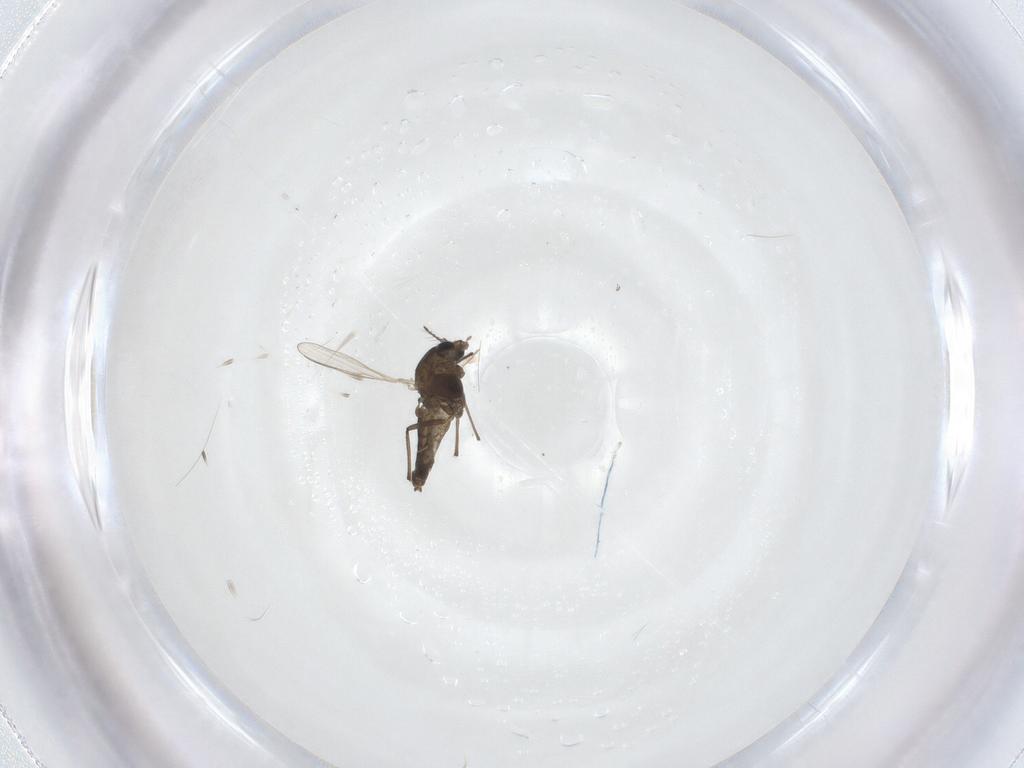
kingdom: Animalia
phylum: Arthropoda
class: Insecta
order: Diptera
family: Chironomidae
